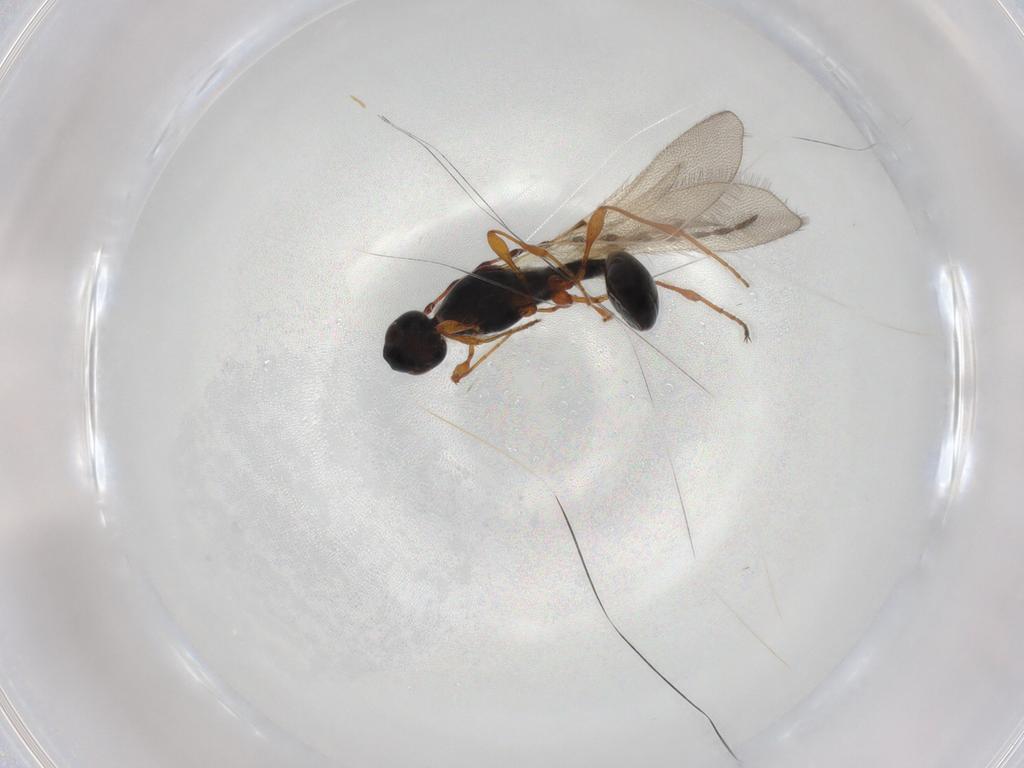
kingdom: Animalia
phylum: Arthropoda
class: Insecta
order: Hymenoptera
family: Diapriidae
